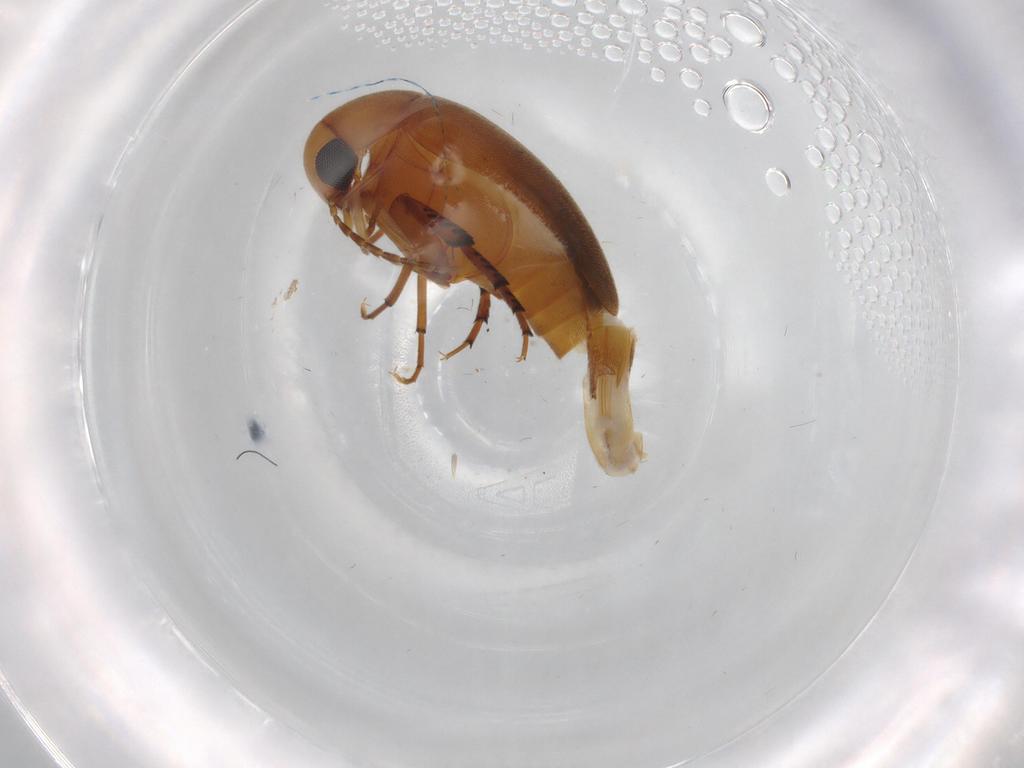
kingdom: Animalia
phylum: Arthropoda
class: Insecta
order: Coleoptera
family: Mordellidae
